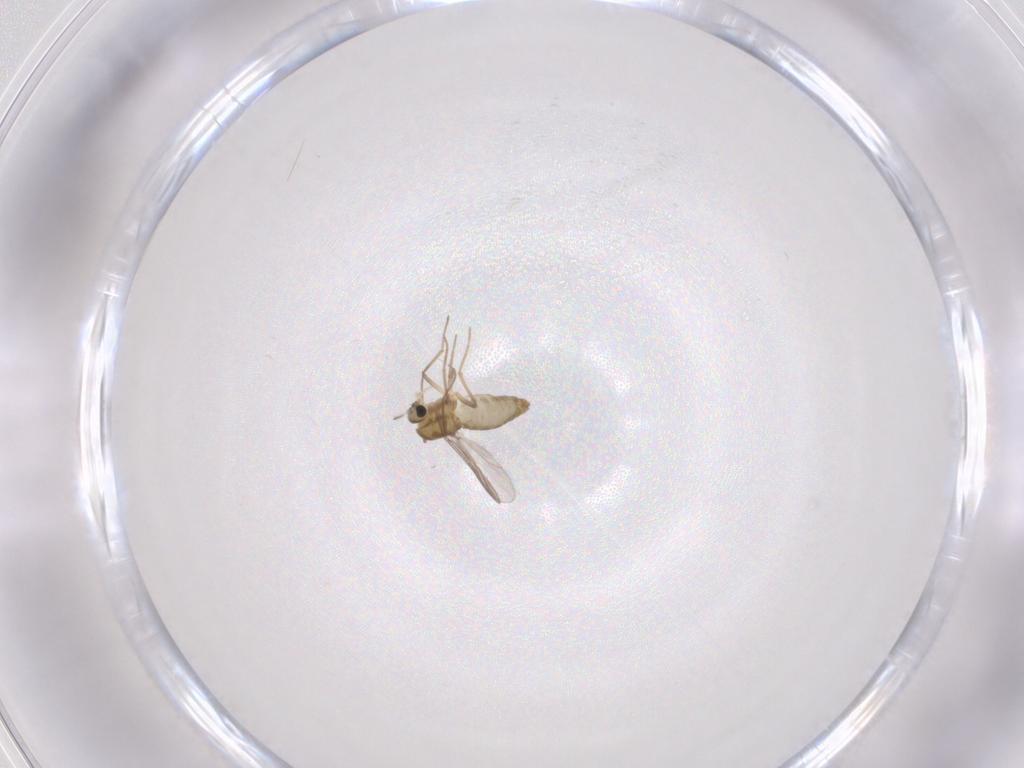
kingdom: Animalia
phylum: Arthropoda
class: Insecta
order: Diptera
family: Chironomidae
